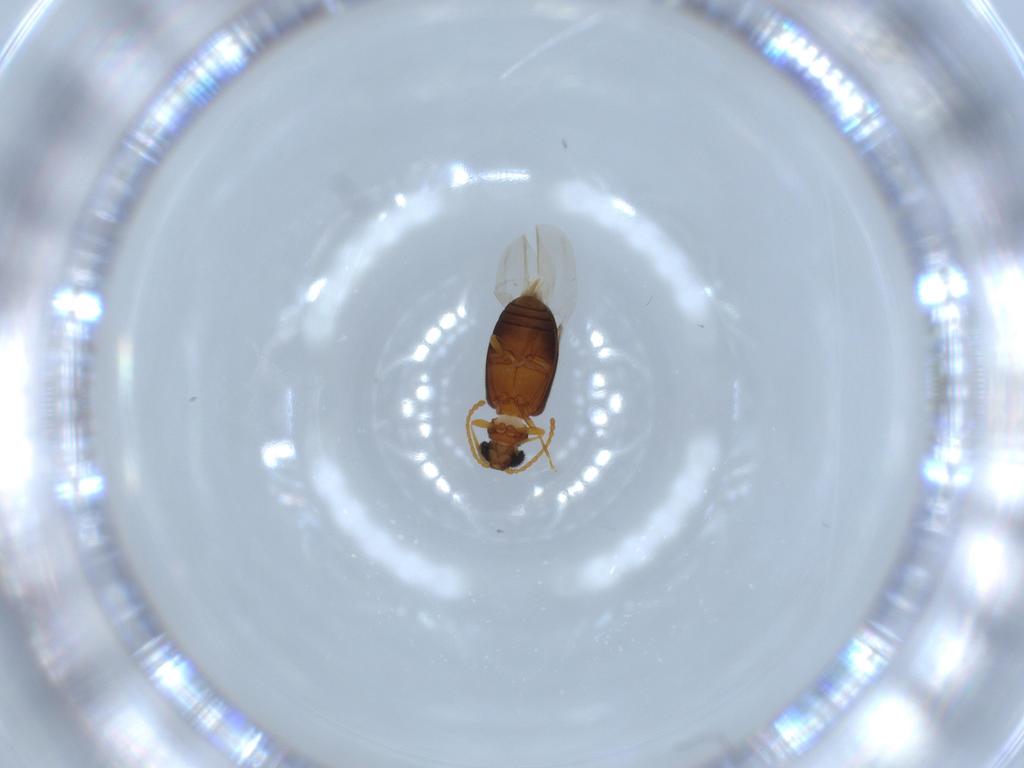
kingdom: Animalia
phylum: Arthropoda
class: Insecta
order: Coleoptera
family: Aderidae
